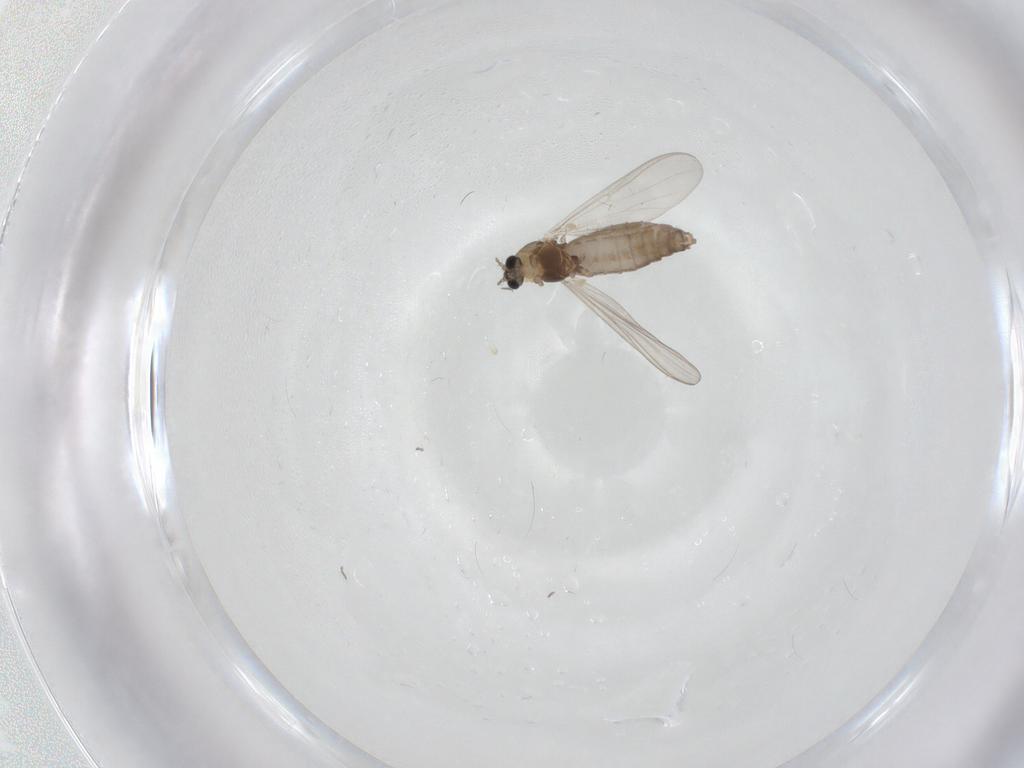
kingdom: Animalia
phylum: Arthropoda
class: Insecta
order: Diptera
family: Chironomidae
